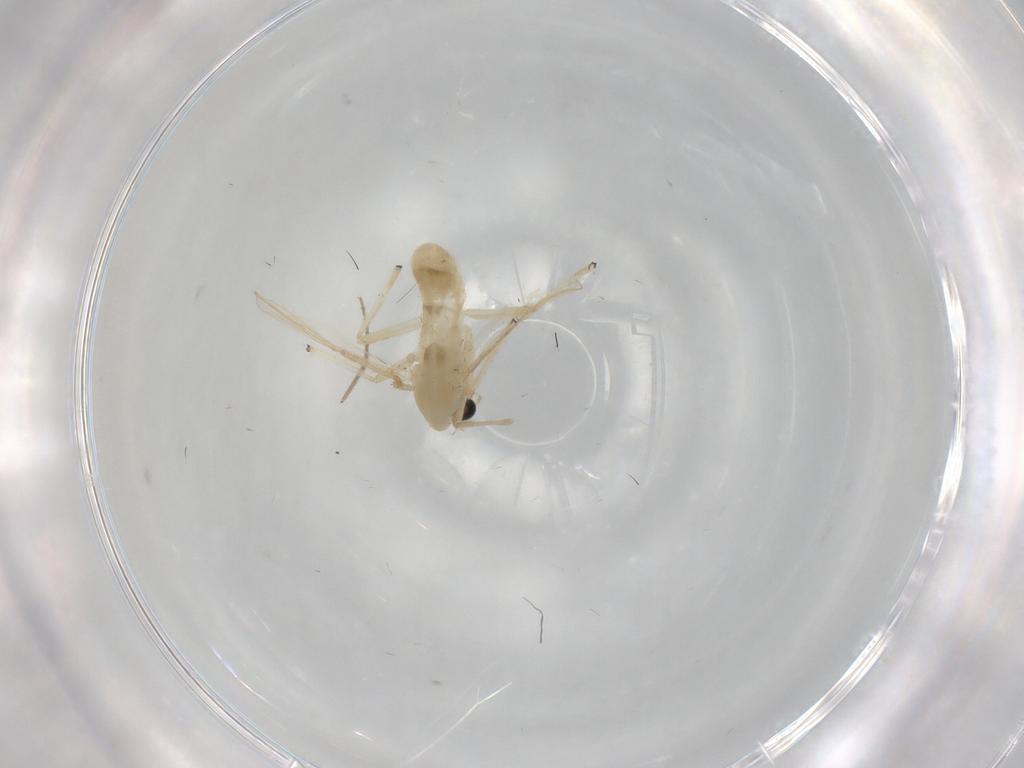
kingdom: Animalia
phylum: Arthropoda
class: Insecta
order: Diptera
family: Chironomidae
